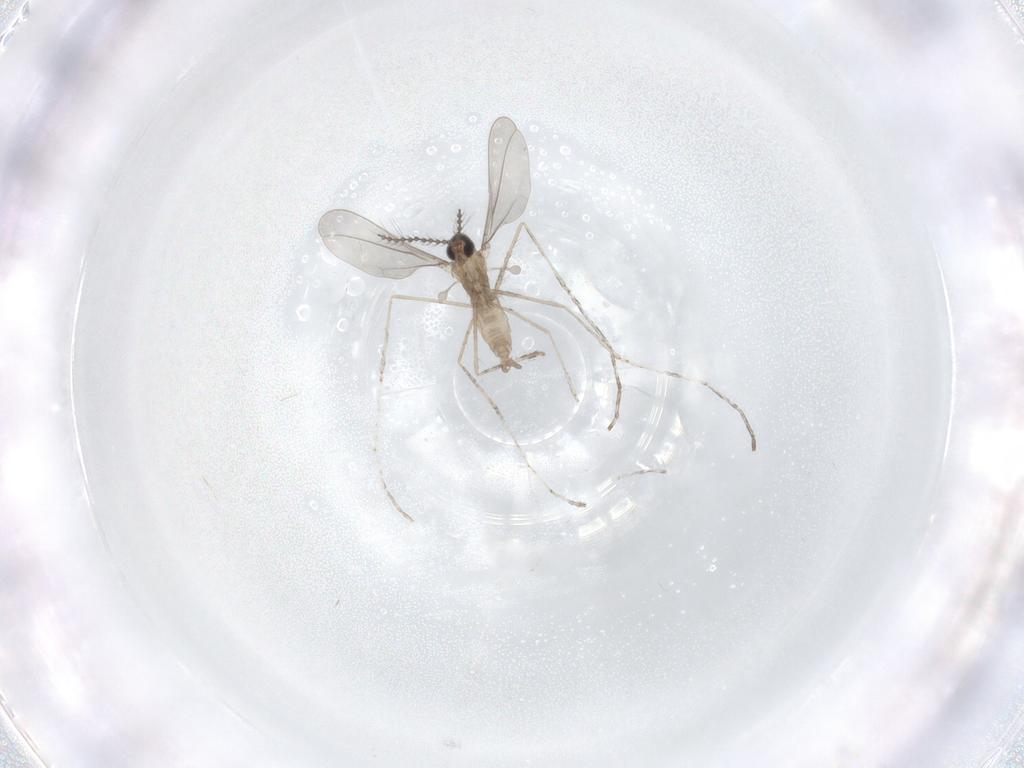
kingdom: Animalia
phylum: Arthropoda
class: Insecta
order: Diptera
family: Cecidomyiidae
